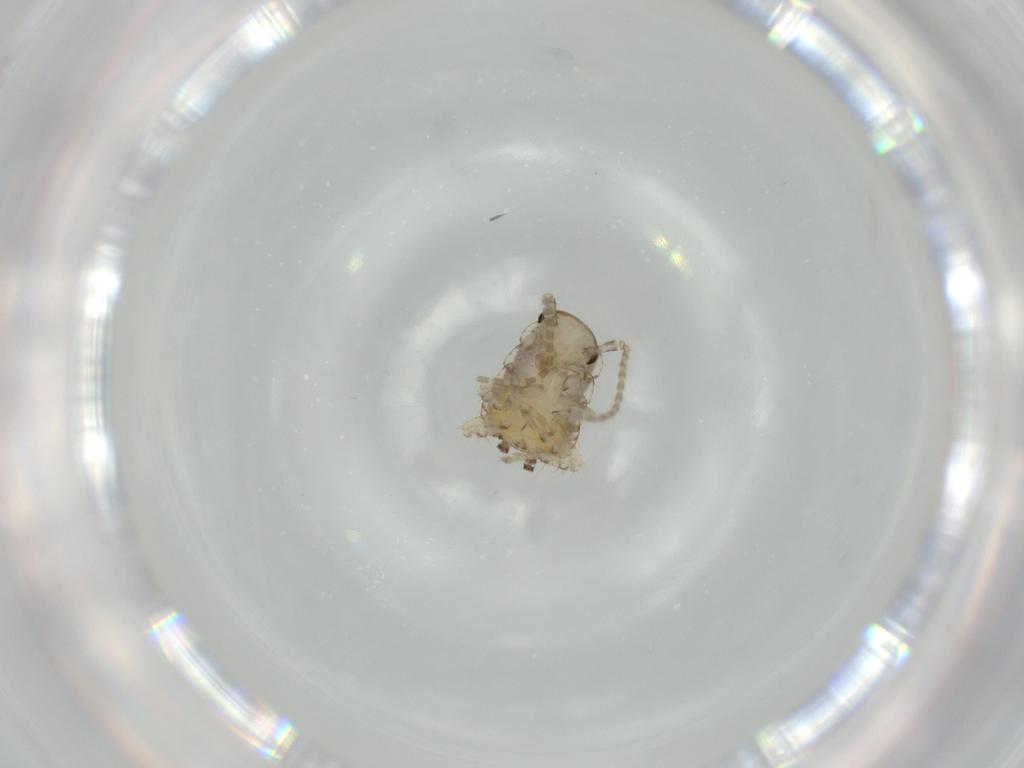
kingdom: Animalia
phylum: Arthropoda
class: Insecta
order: Blattodea
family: Ectobiidae
